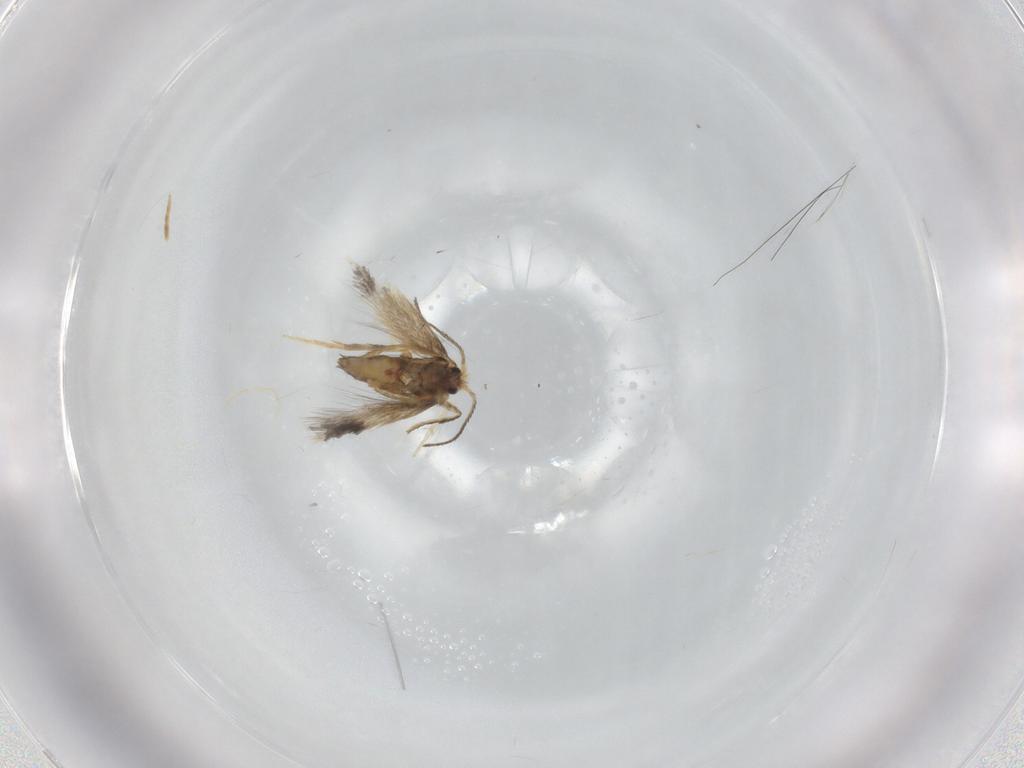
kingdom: Animalia
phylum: Arthropoda
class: Insecta
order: Lepidoptera
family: Nepticulidae
